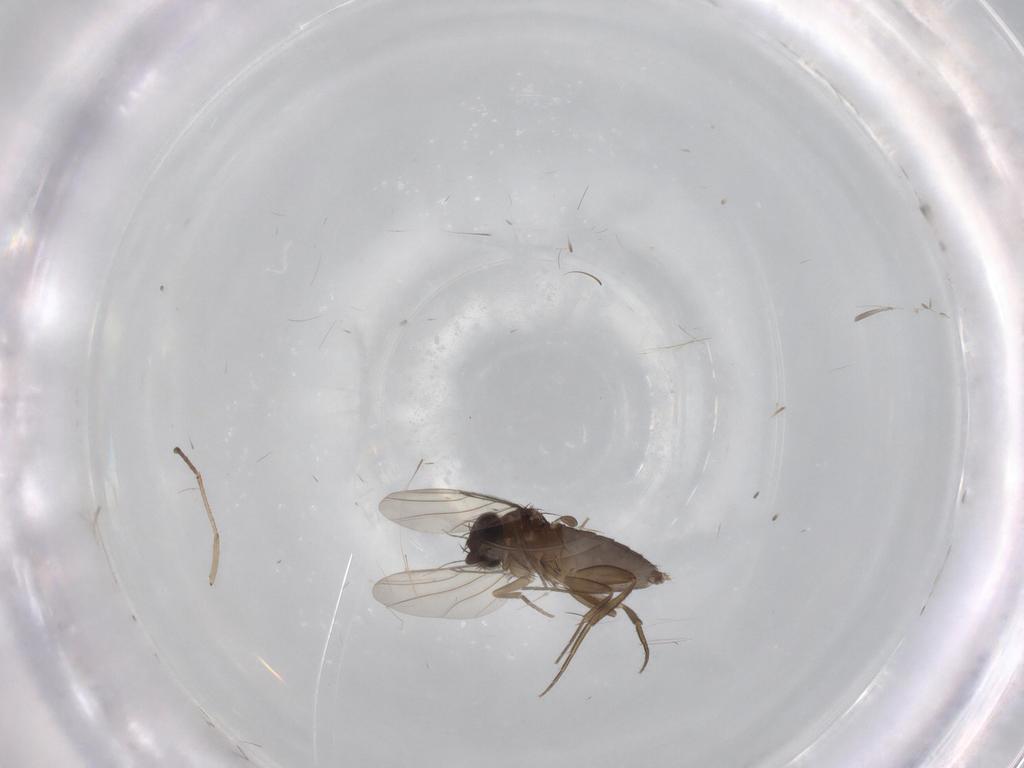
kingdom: Animalia
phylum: Arthropoda
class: Insecta
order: Diptera
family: Phoridae
